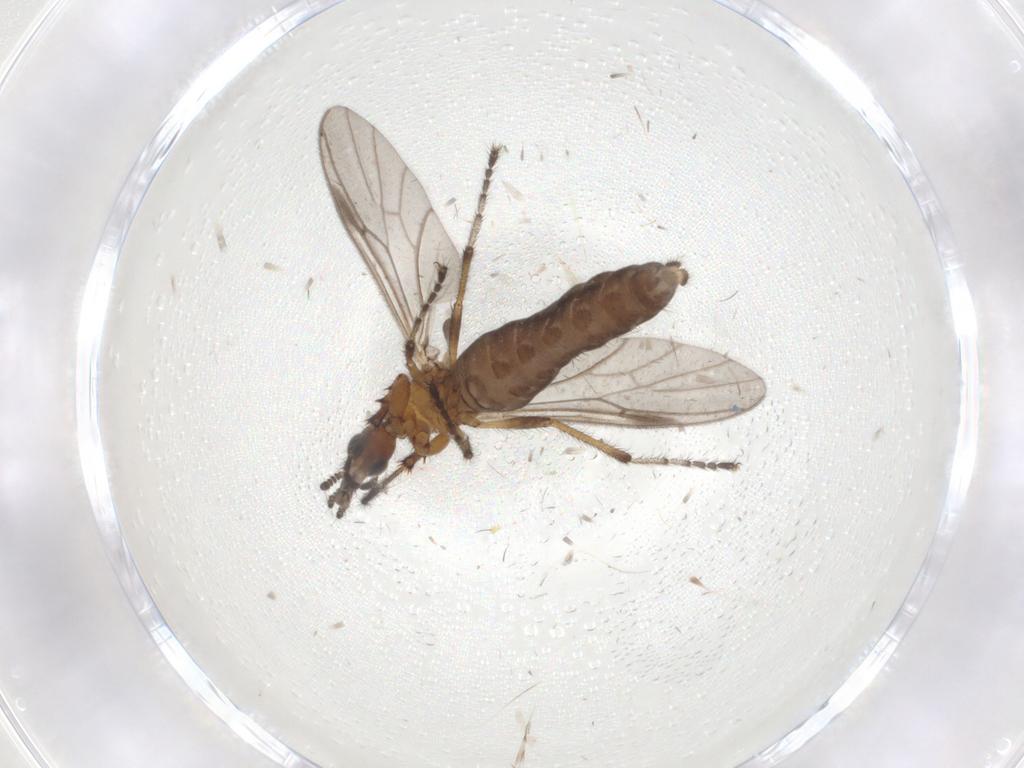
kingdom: Animalia
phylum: Arthropoda
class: Insecta
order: Diptera
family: Bibionidae
